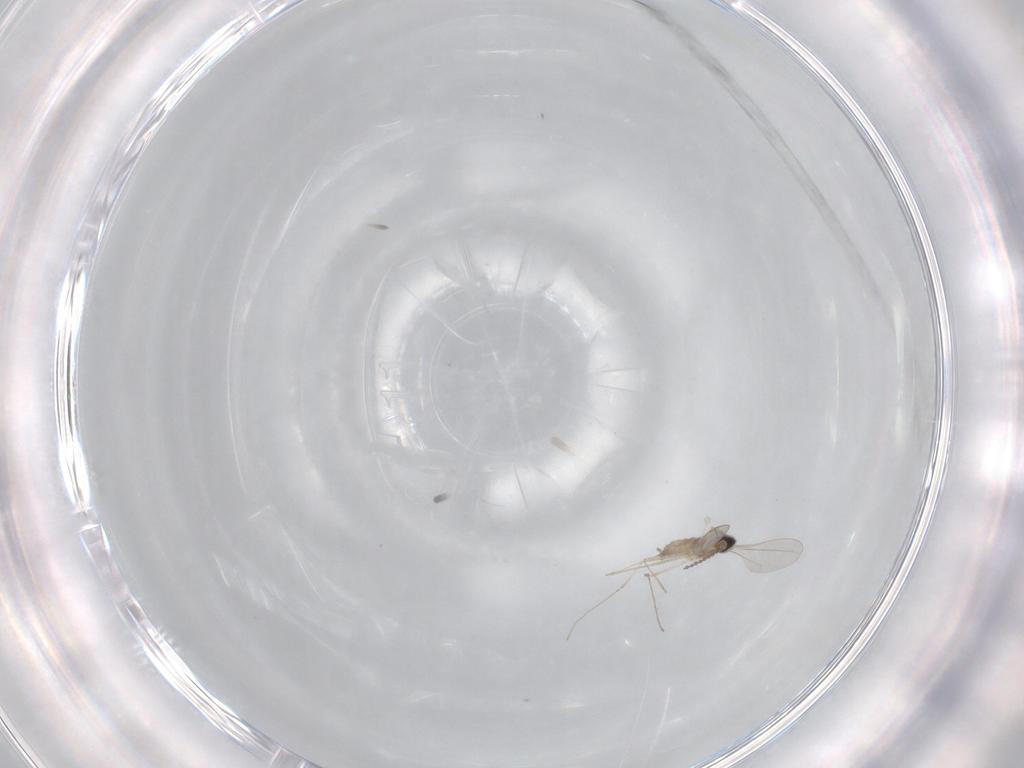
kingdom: Animalia
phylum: Arthropoda
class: Insecta
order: Diptera
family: Cecidomyiidae
